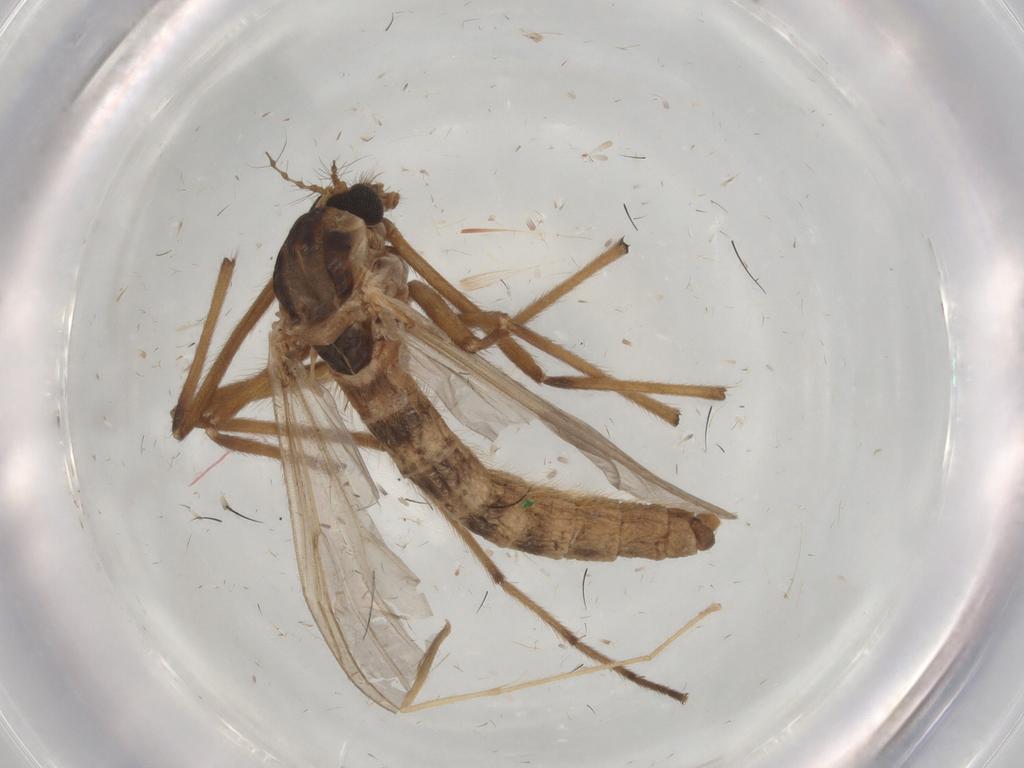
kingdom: Animalia
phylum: Arthropoda
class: Insecta
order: Diptera
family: Chironomidae
